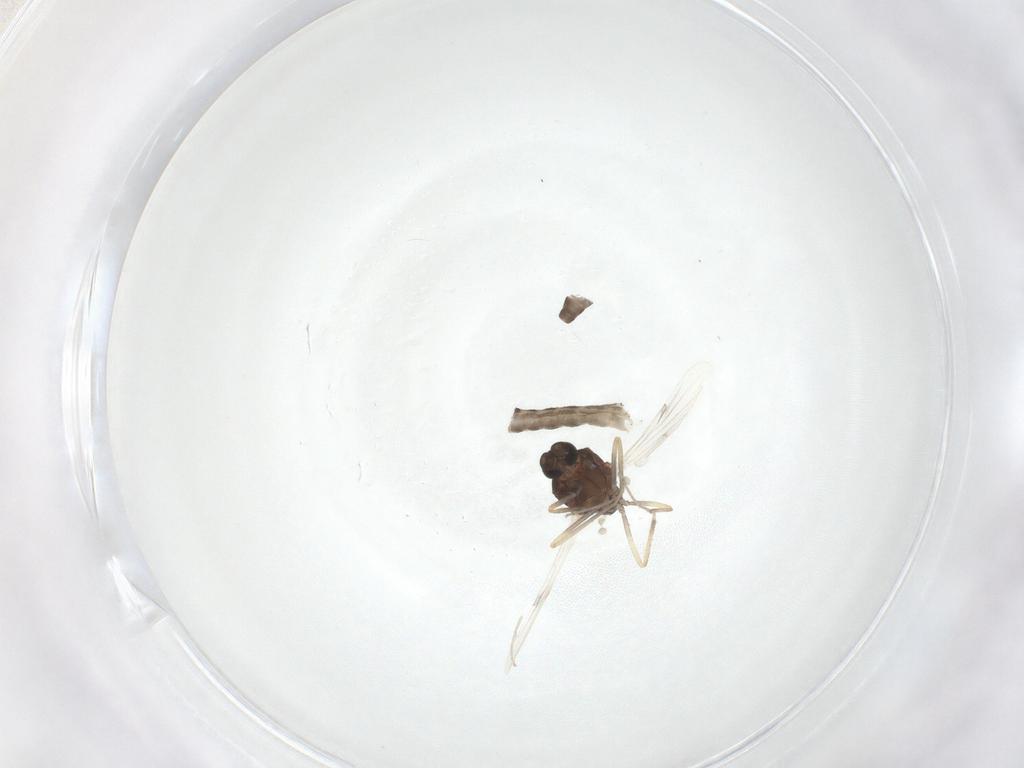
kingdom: Animalia
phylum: Arthropoda
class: Insecta
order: Diptera
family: Ceratopogonidae
